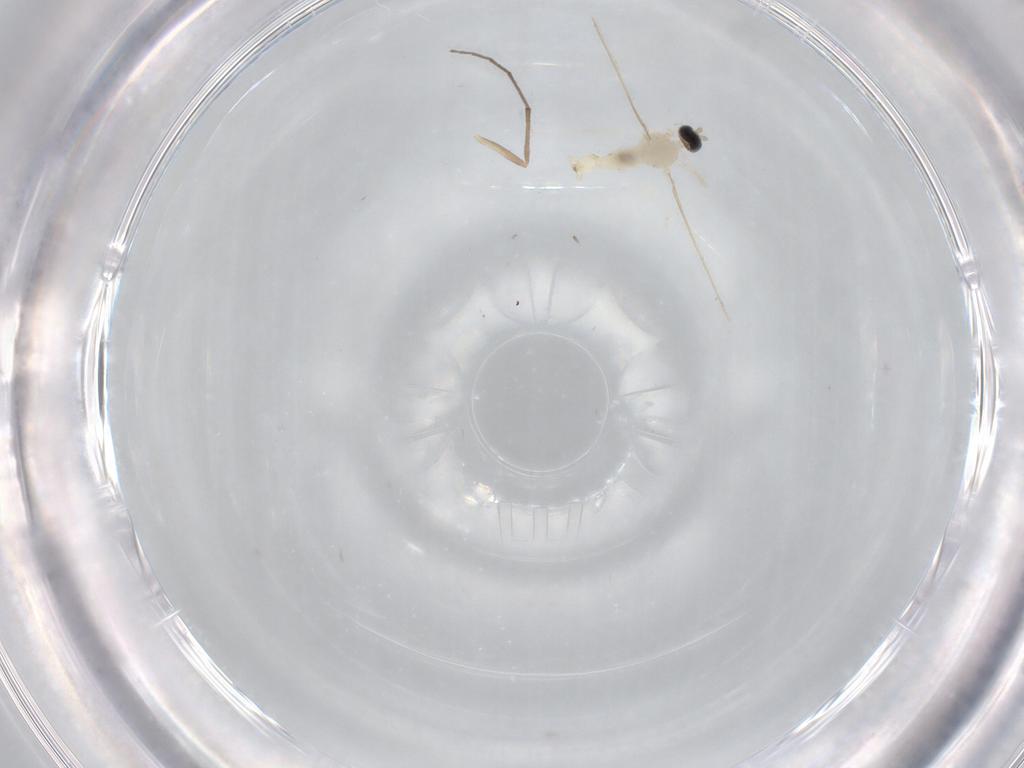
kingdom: Animalia
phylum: Arthropoda
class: Insecta
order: Diptera
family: Cecidomyiidae
